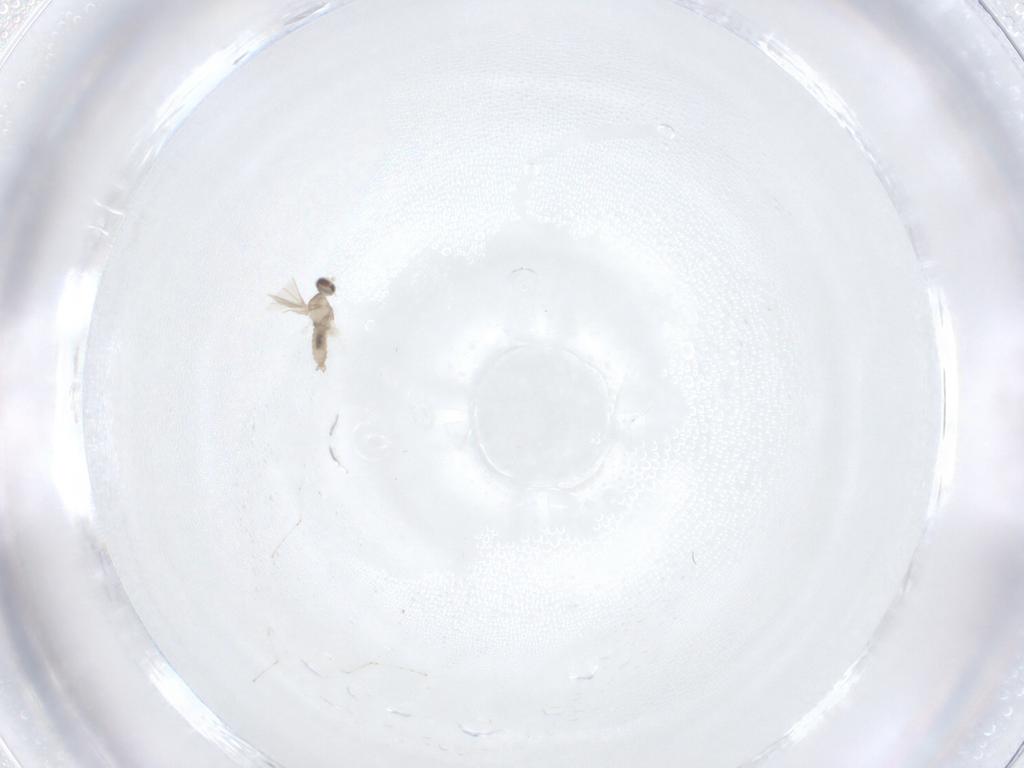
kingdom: Animalia
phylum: Arthropoda
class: Insecta
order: Diptera
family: Cecidomyiidae
